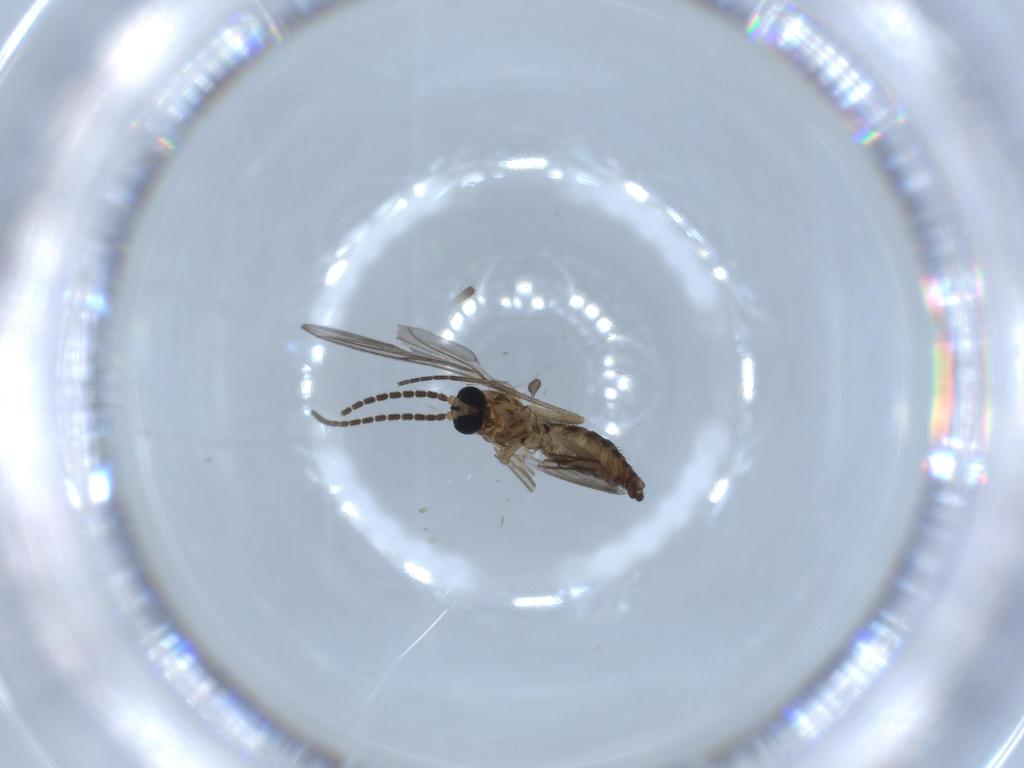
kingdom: Animalia
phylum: Arthropoda
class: Insecta
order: Diptera
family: Sciaridae
